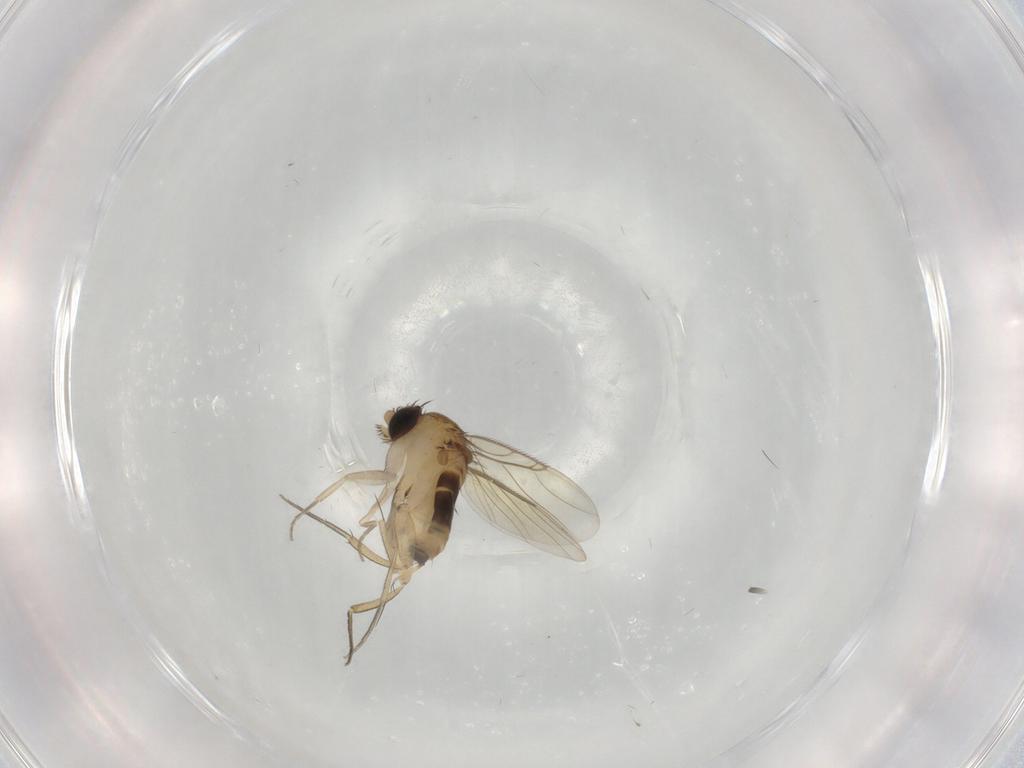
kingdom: Animalia
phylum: Arthropoda
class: Insecta
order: Diptera
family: Phoridae
